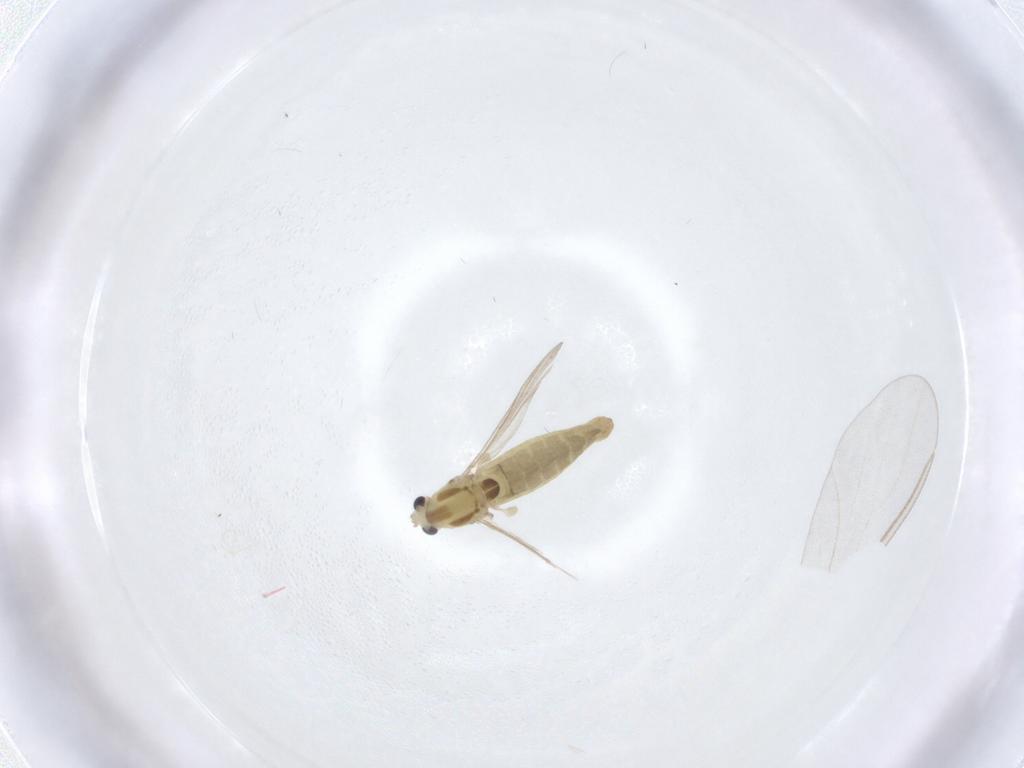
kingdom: Animalia
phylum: Arthropoda
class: Insecta
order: Diptera
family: Chironomidae
